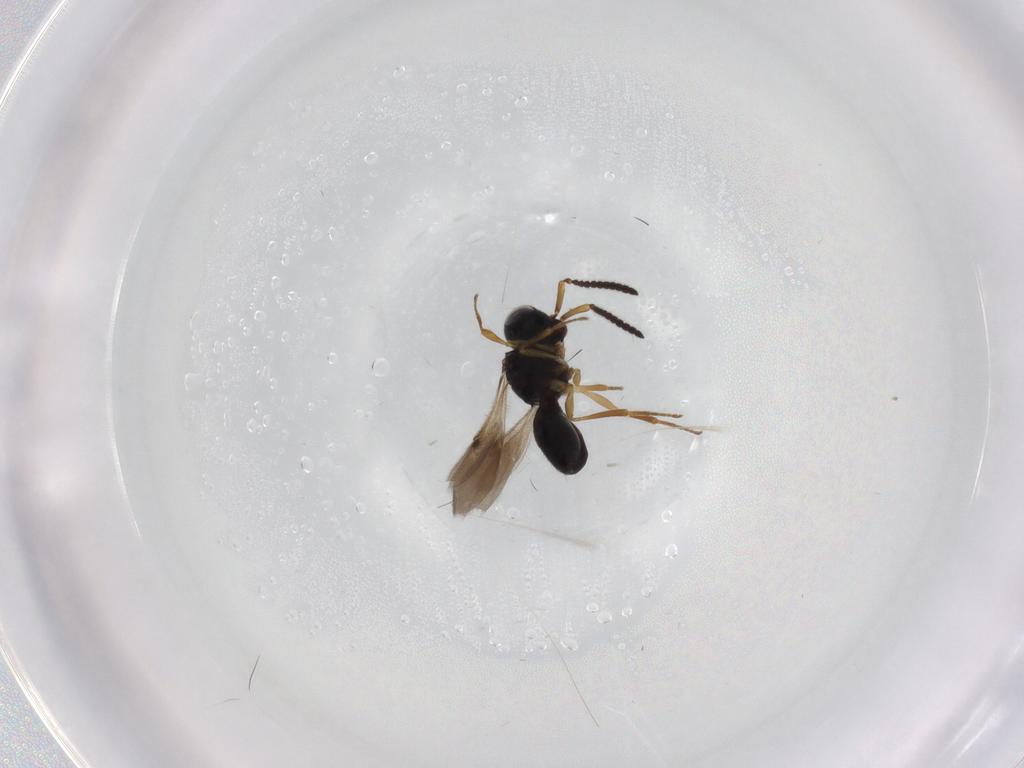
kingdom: Animalia
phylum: Arthropoda
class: Insecta
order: Hymenoptera
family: Scelionidae
